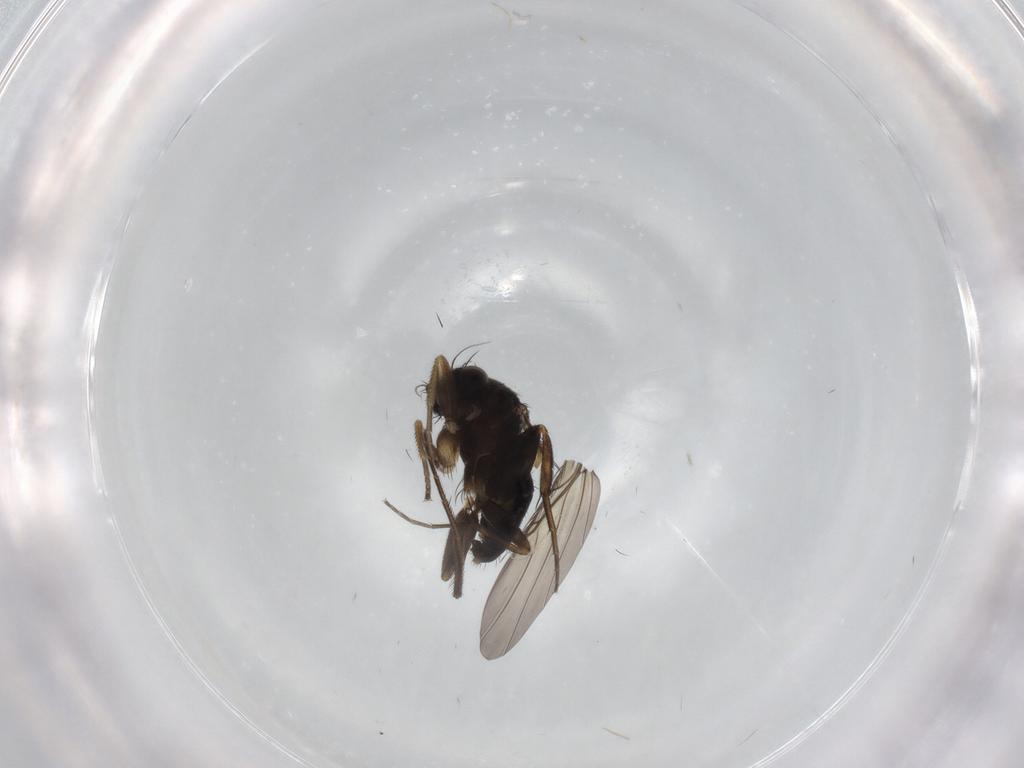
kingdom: Animalia
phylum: Arthropoda
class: Insecta
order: Diptera
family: Phoridae
